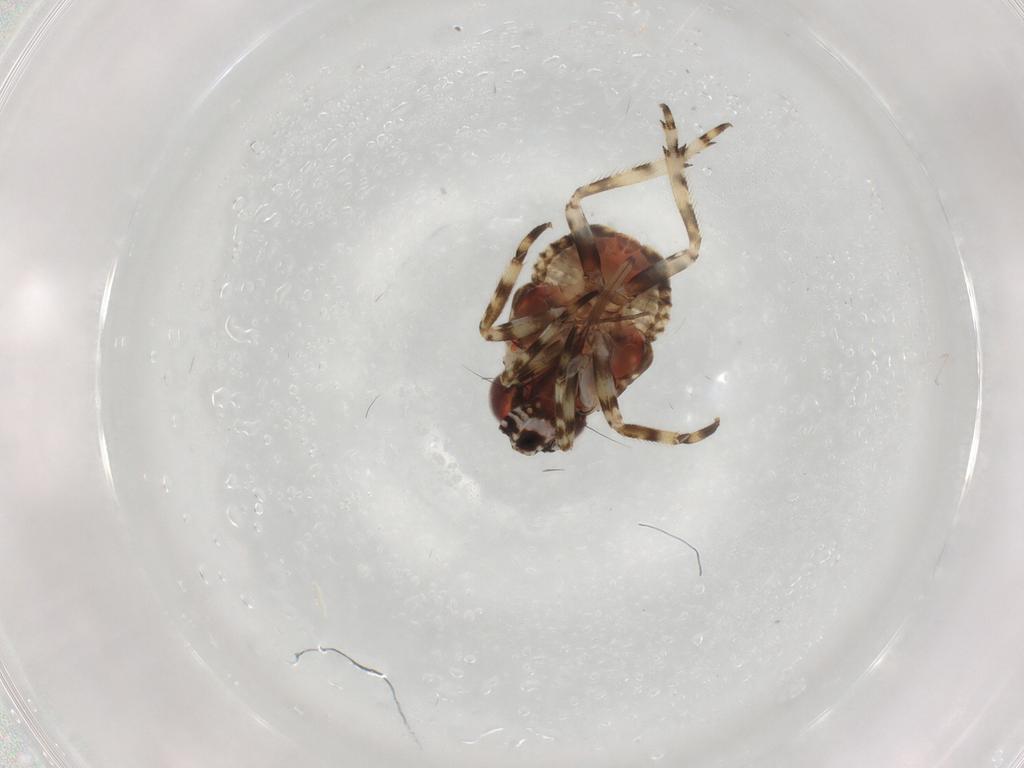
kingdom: Animalia
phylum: Arthropoda
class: Insecta
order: Hemiptera
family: Caliscelidae
